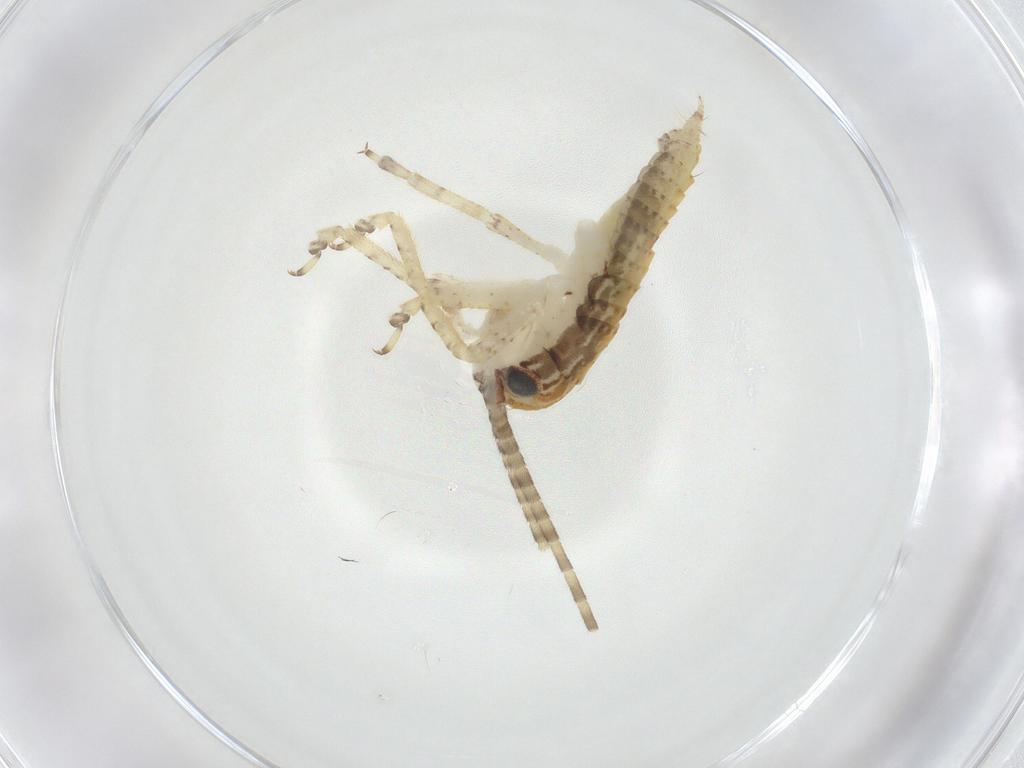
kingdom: Animalia
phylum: Arthropoda
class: Insecta
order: Orthoptera
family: Gryllidae
